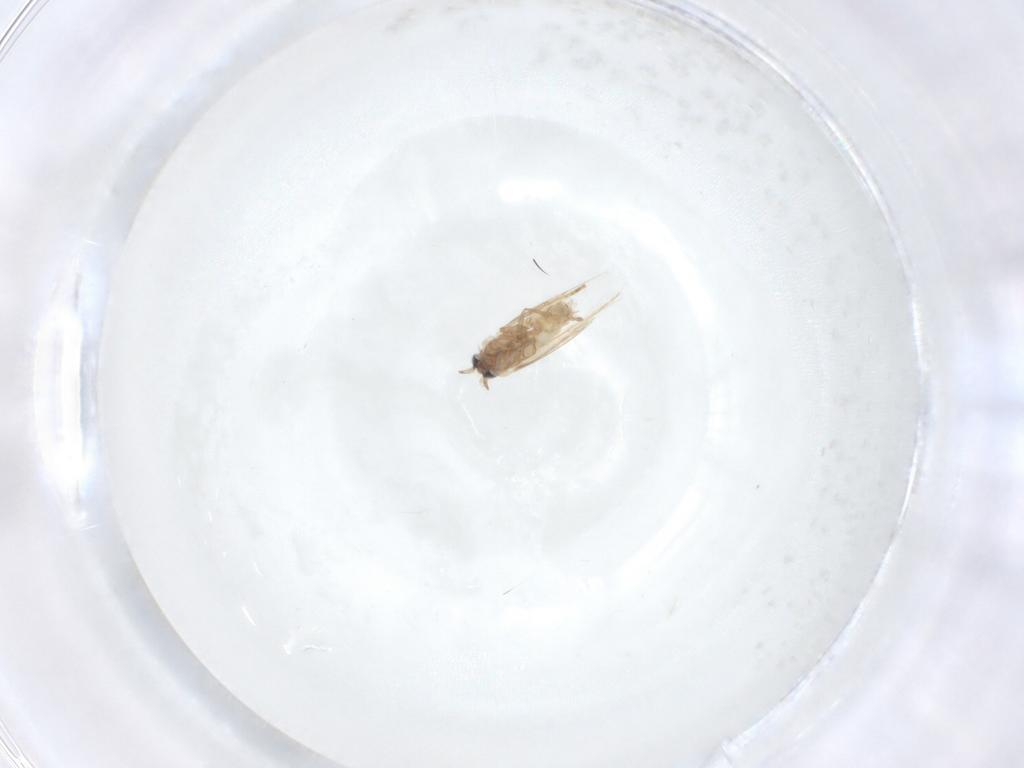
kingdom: Animalia
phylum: Arthropoda
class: Insecta
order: Lepidoptera
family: Nepticulidae
